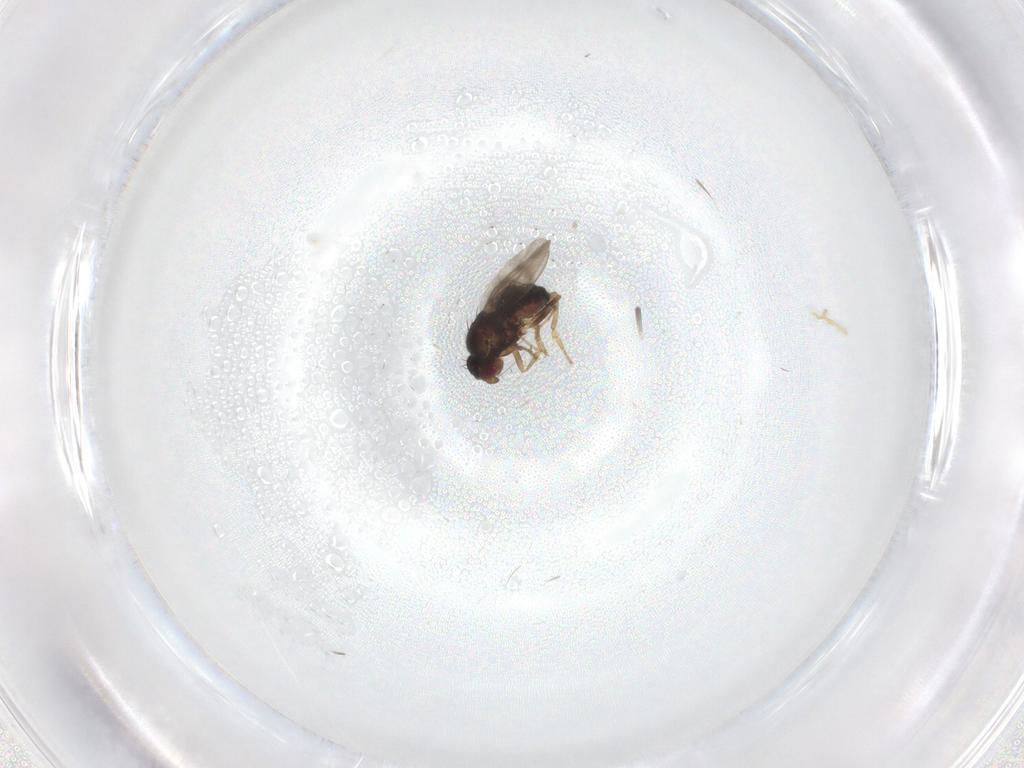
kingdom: Animalia
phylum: Arthropoda
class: Insecta
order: Diptera
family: Sphaeroceridae
